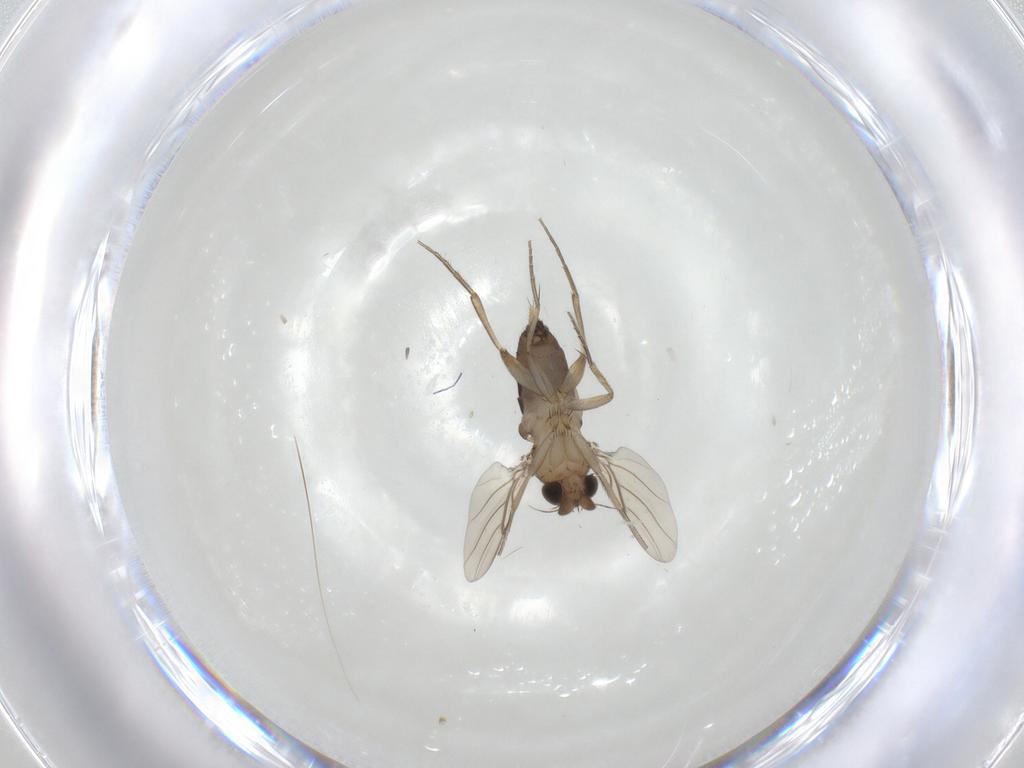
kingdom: Animalia
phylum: Arthropoda
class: Insecta
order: Diptera
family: Phoridae
